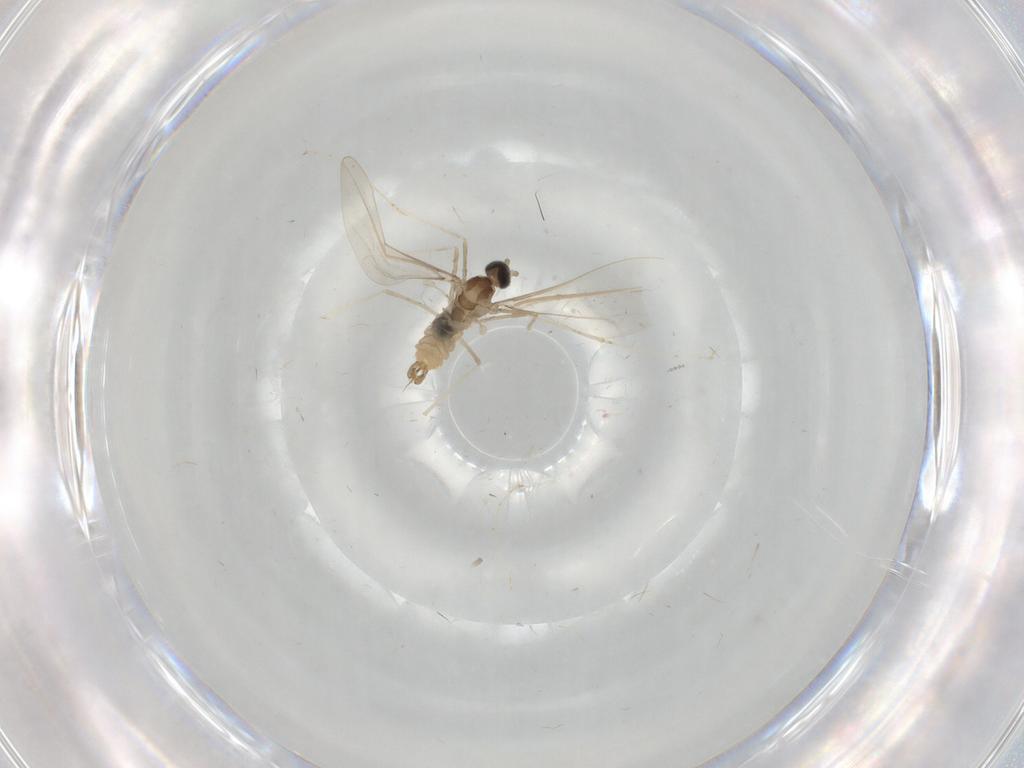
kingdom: Animalia
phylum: Arthropoda
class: Insecta
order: Diptera
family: Cecidomyiidae
